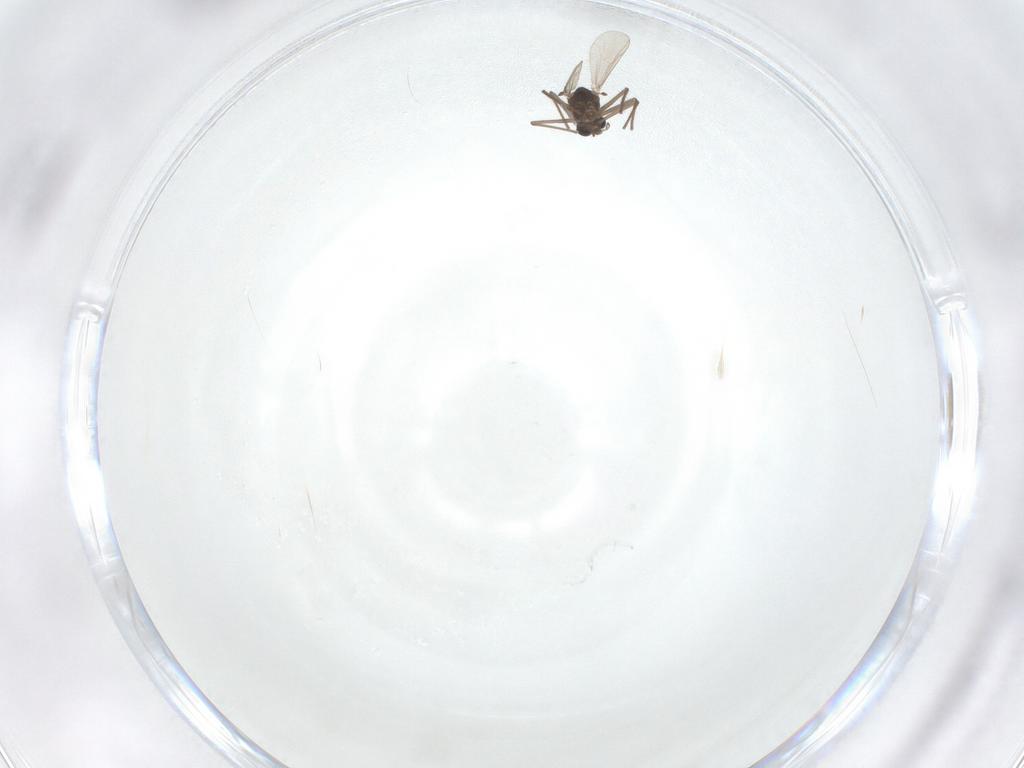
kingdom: Animalia
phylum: Arthropoda
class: Insecta
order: Diptera
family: Chironomidae
